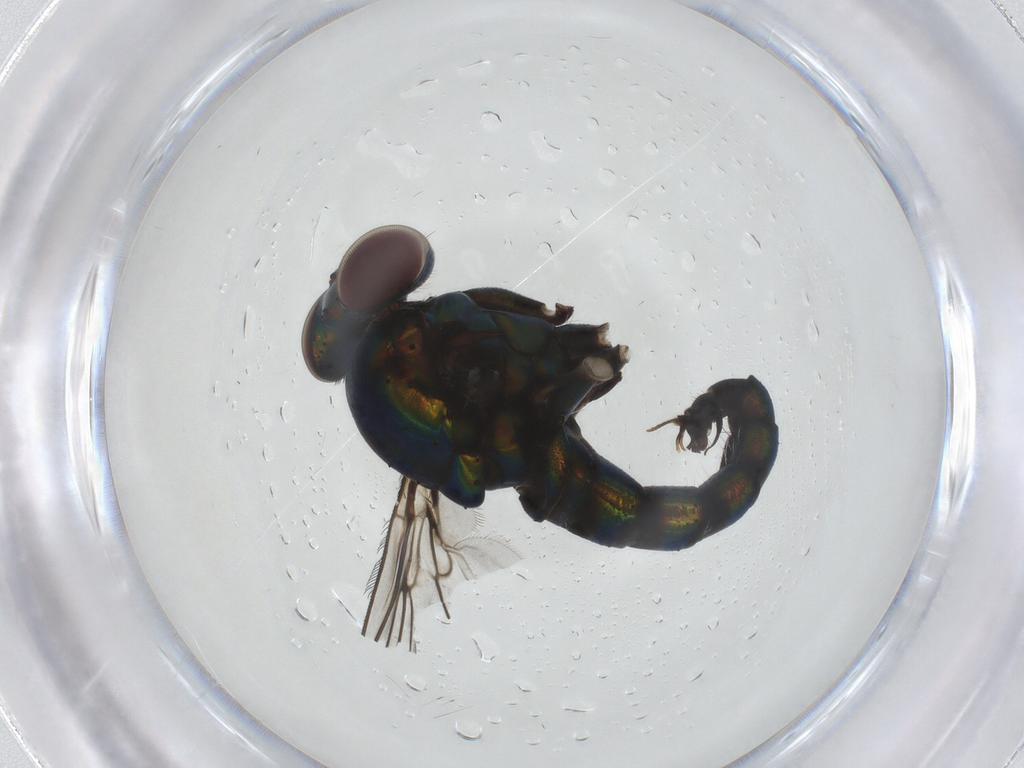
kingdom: Animalia
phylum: Arthropoda
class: Insecta
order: Diptera
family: Dolichopodidae
